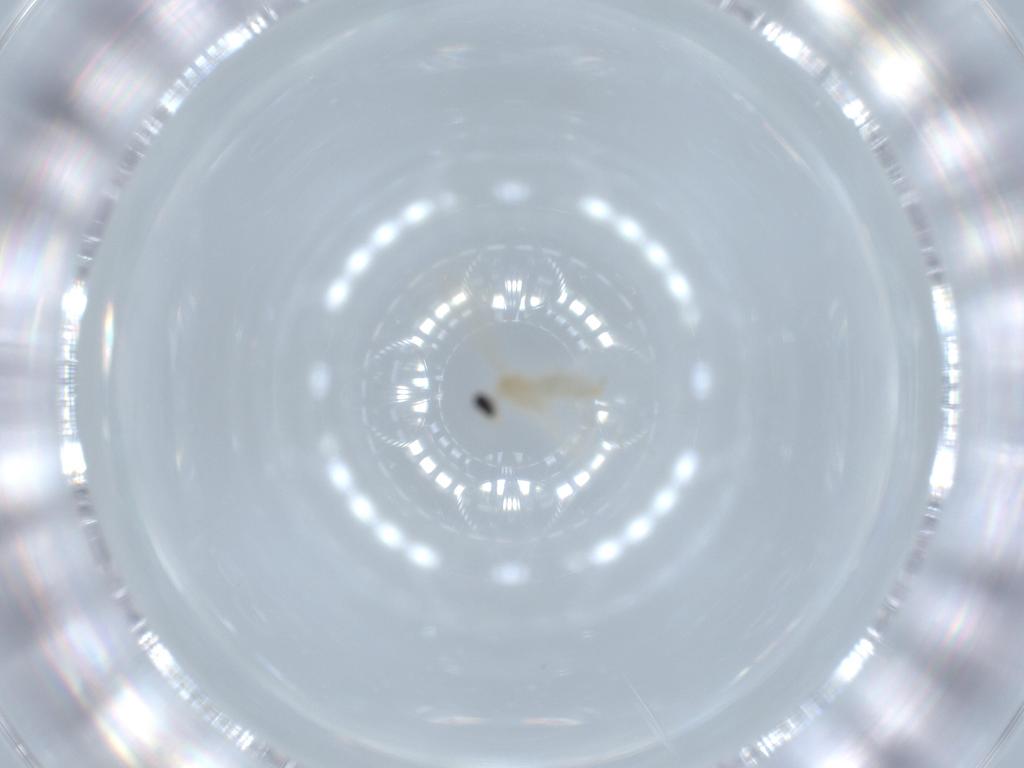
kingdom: Animalia
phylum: Arthropoda
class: Insecta
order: Diptera
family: Cecidomyiidae
